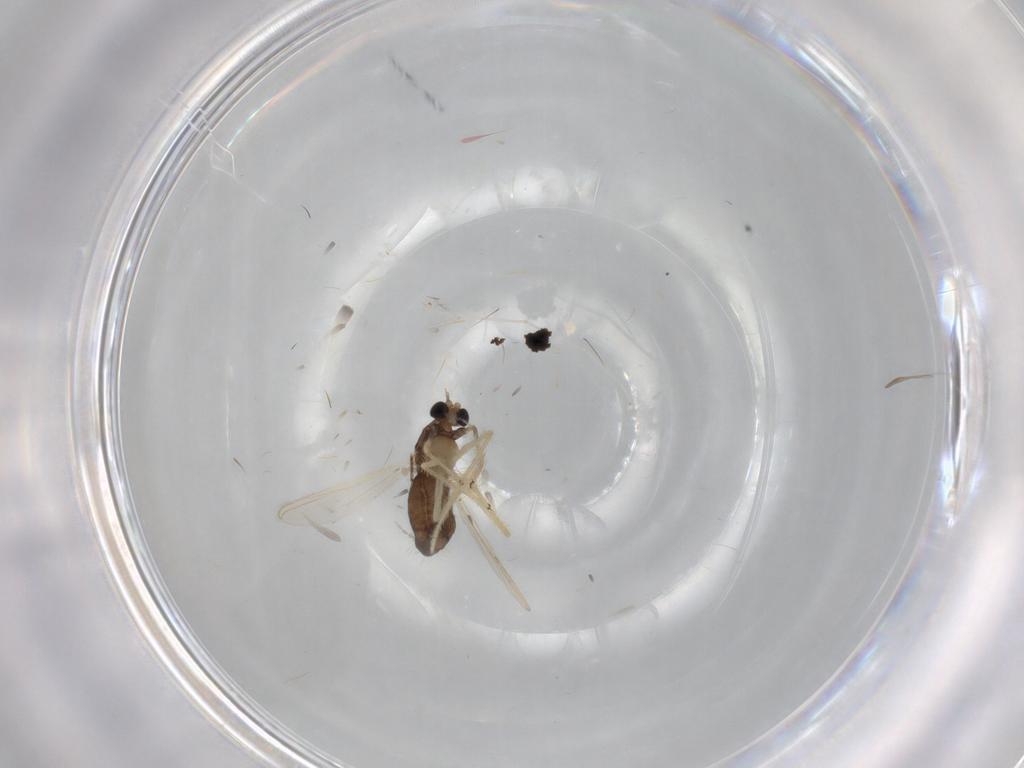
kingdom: Animalia
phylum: Arthropoda
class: Insecta
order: Diptera
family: Chironomidae
